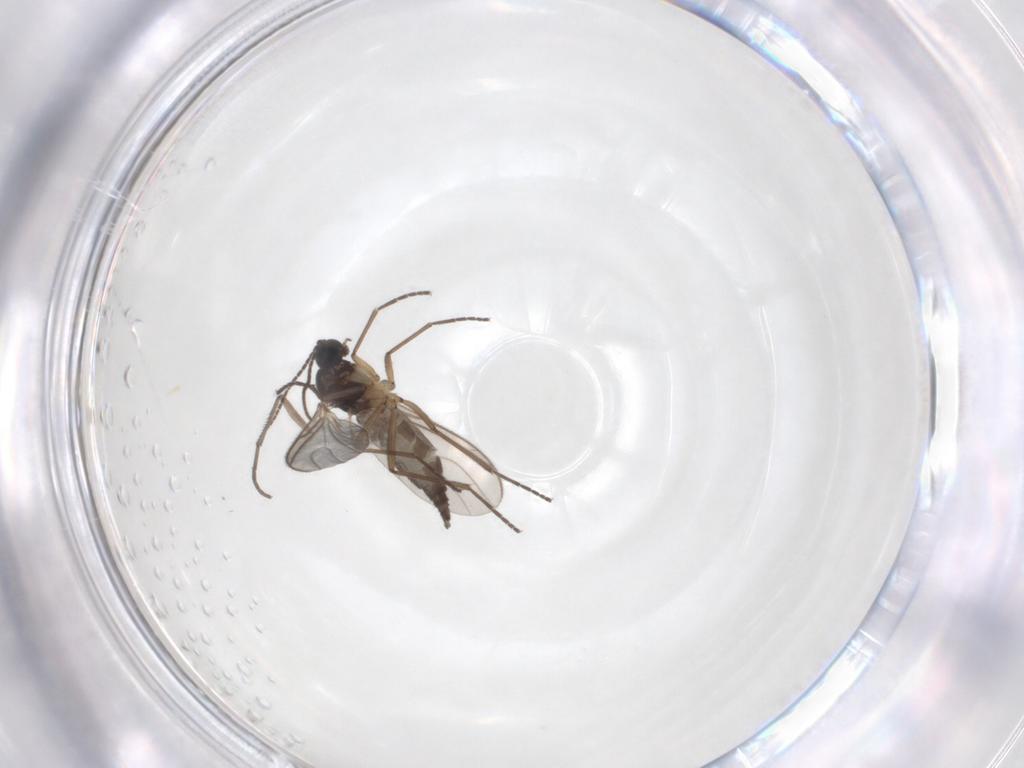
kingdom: Animalia
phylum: Arthropoda
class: Insecta
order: Diptera
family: Sciaridae
